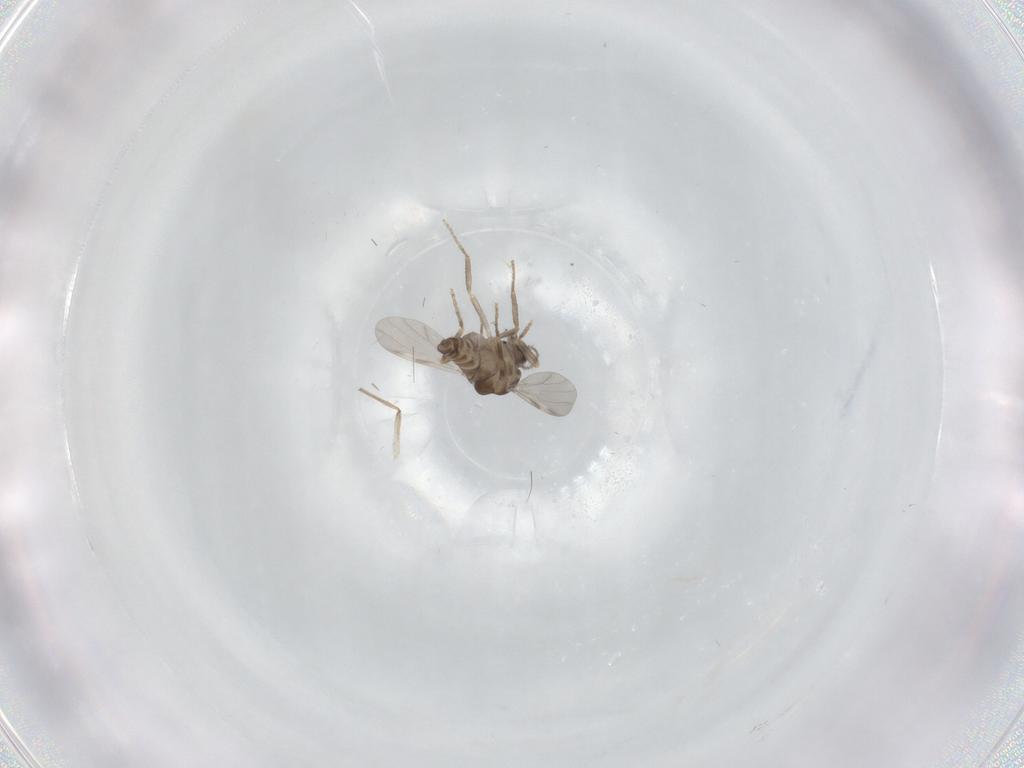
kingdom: Animalia
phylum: Arthropoda
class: Insecta
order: Diptera
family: Ceratopogonidae
